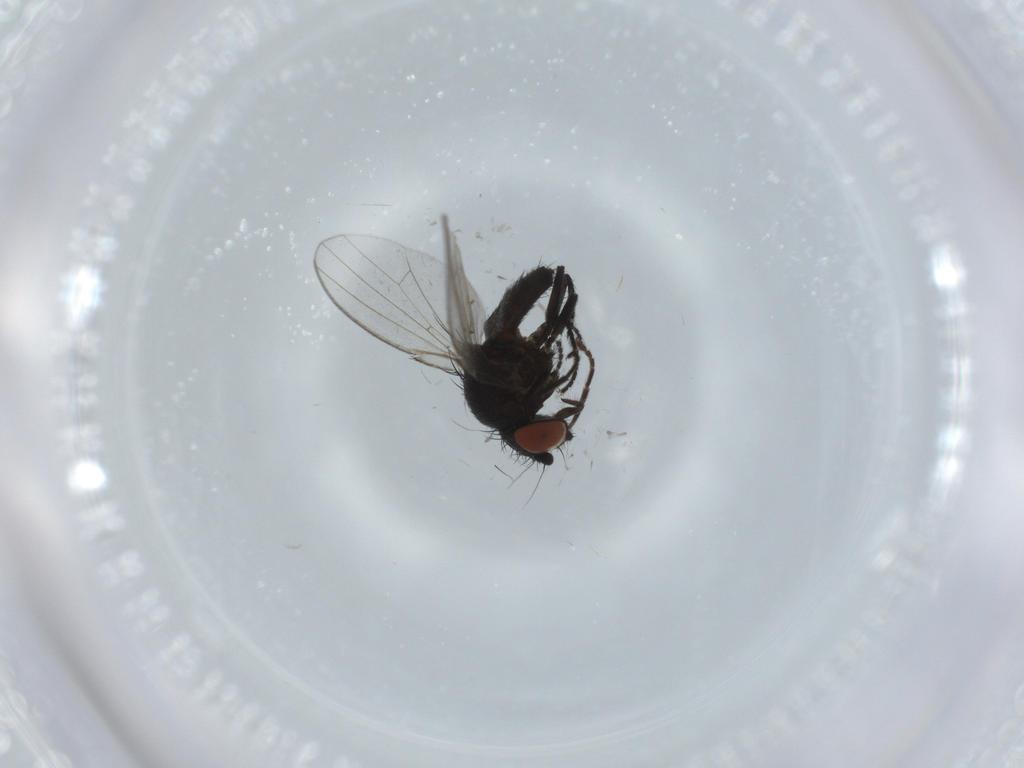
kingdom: Animalia
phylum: Arthropoda
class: Insecta
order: Diptera
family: Milichiidae
